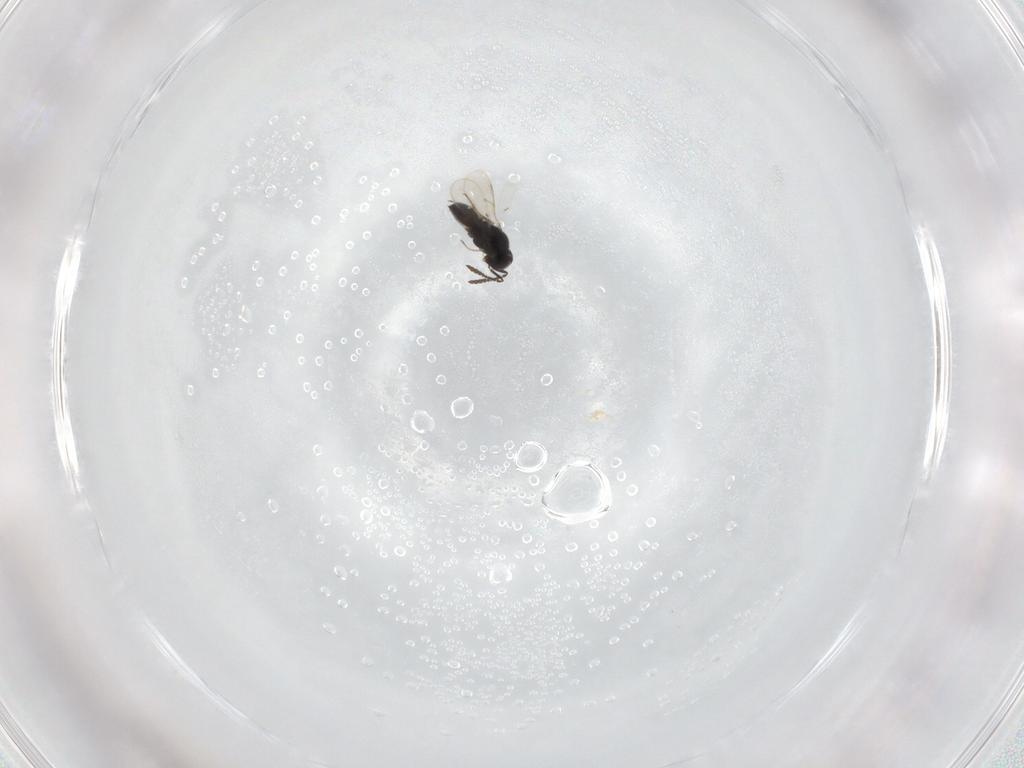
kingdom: Animalia
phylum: Arthropoda
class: Insecta
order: Hymenoptera
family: Scelionidae
